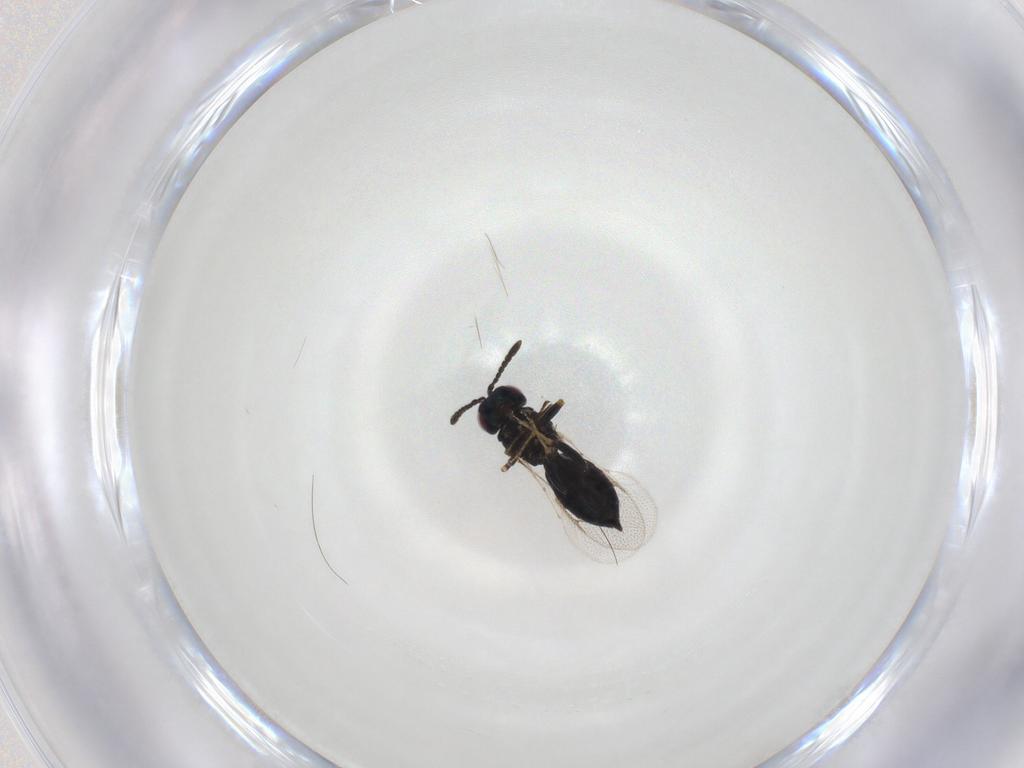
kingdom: Animalia
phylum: Arthropoda
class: Insecta
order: Hymenoptera
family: Pteromalidae
